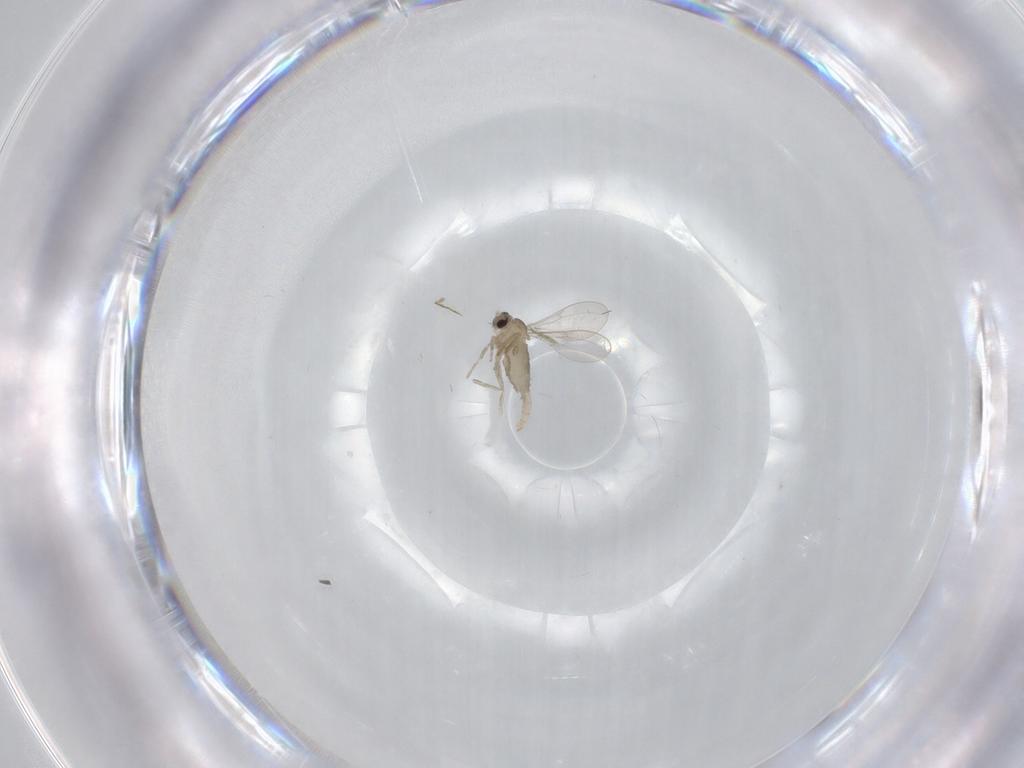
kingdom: Animalia
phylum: Arthropoda
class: Insecta
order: Diptera
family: Cecidomyiidae
